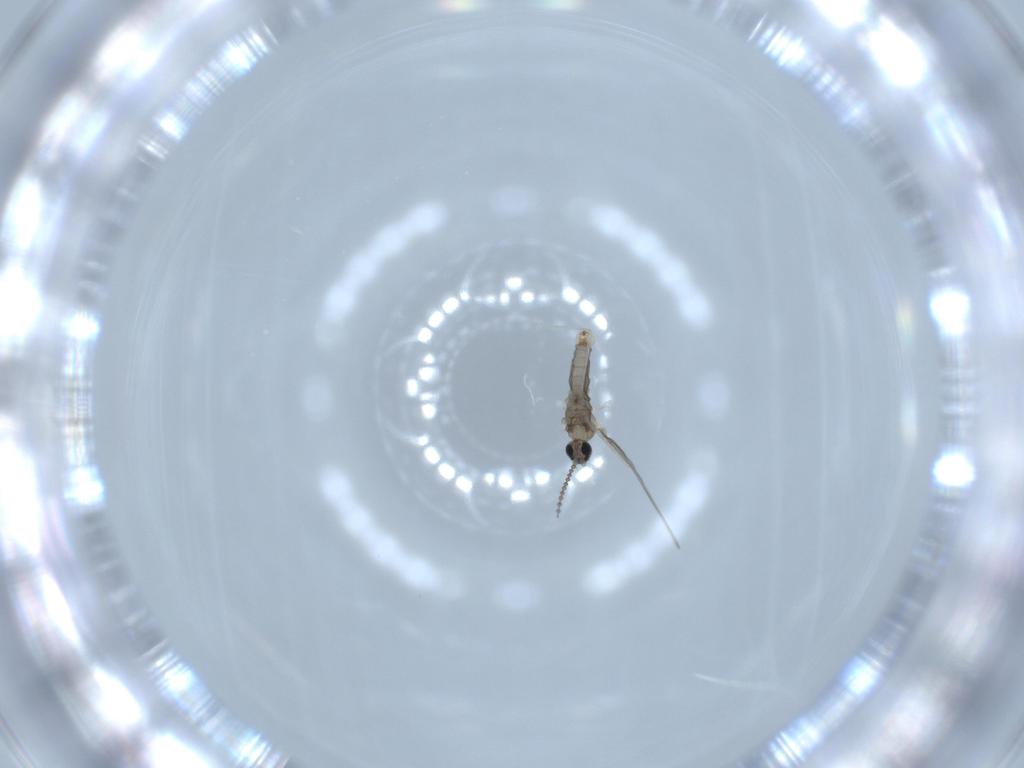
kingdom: Animalia
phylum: Arthropoda
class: Insecta
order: Diptera
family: Cecidomyiidae
